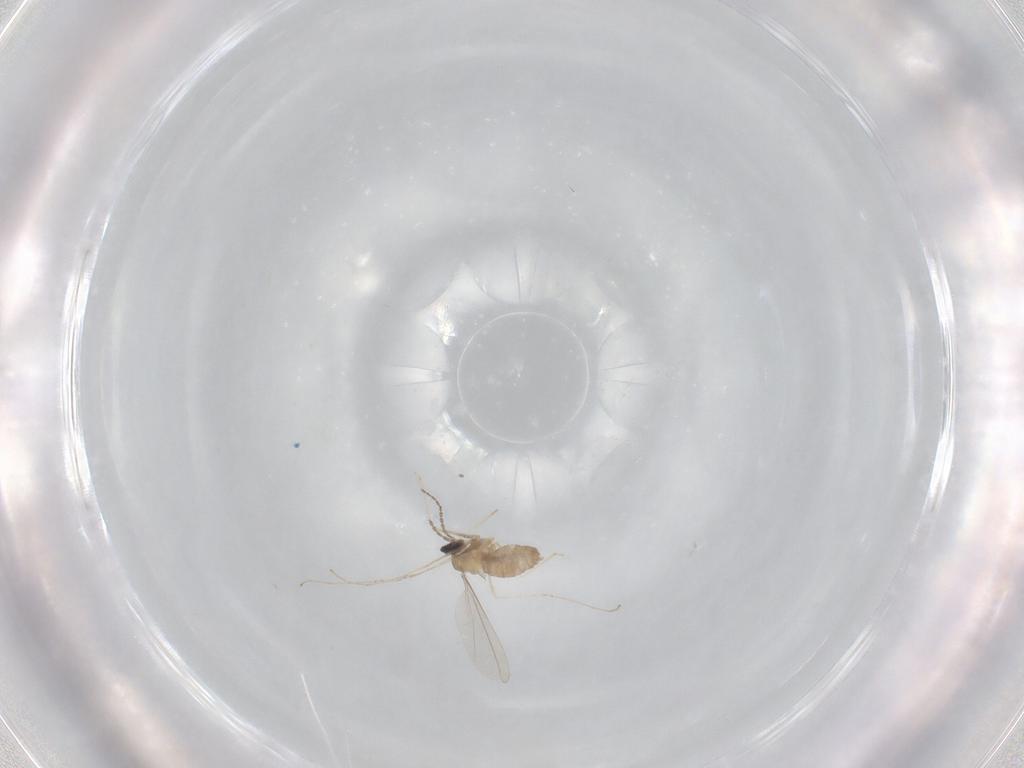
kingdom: Animalia
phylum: Arthropoda
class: Insecta
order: Diptera
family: Cecidomyiidae
